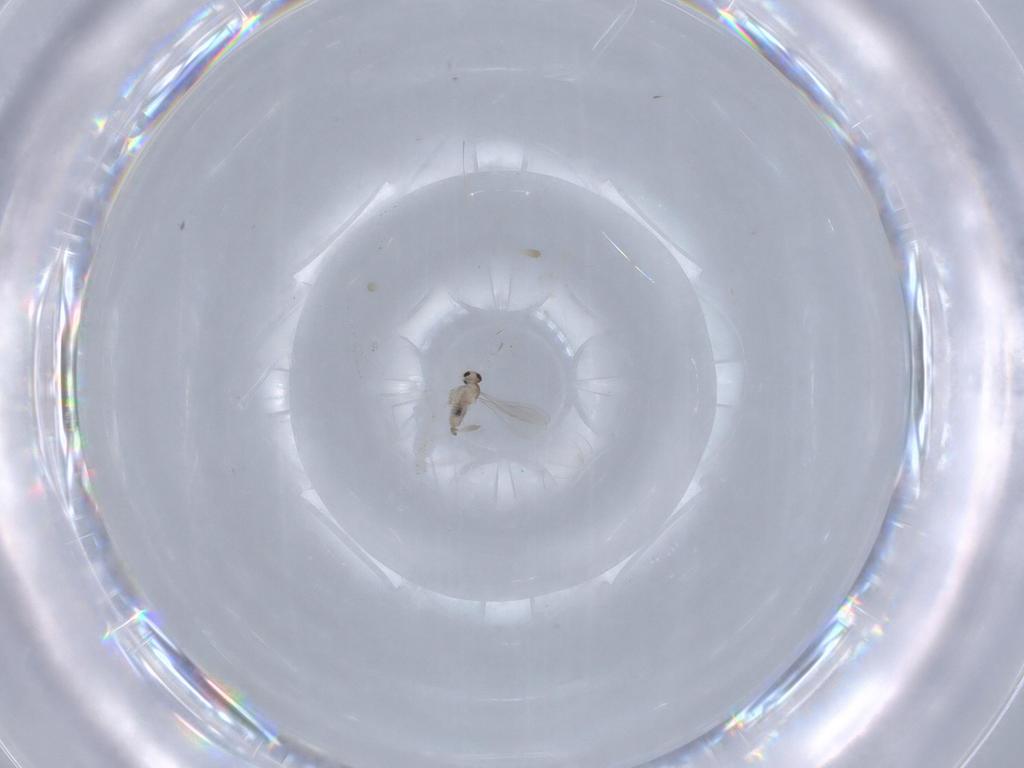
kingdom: Animalia
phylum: Arthropoda
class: Insecta
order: Diptera
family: Cecidomyiidae
